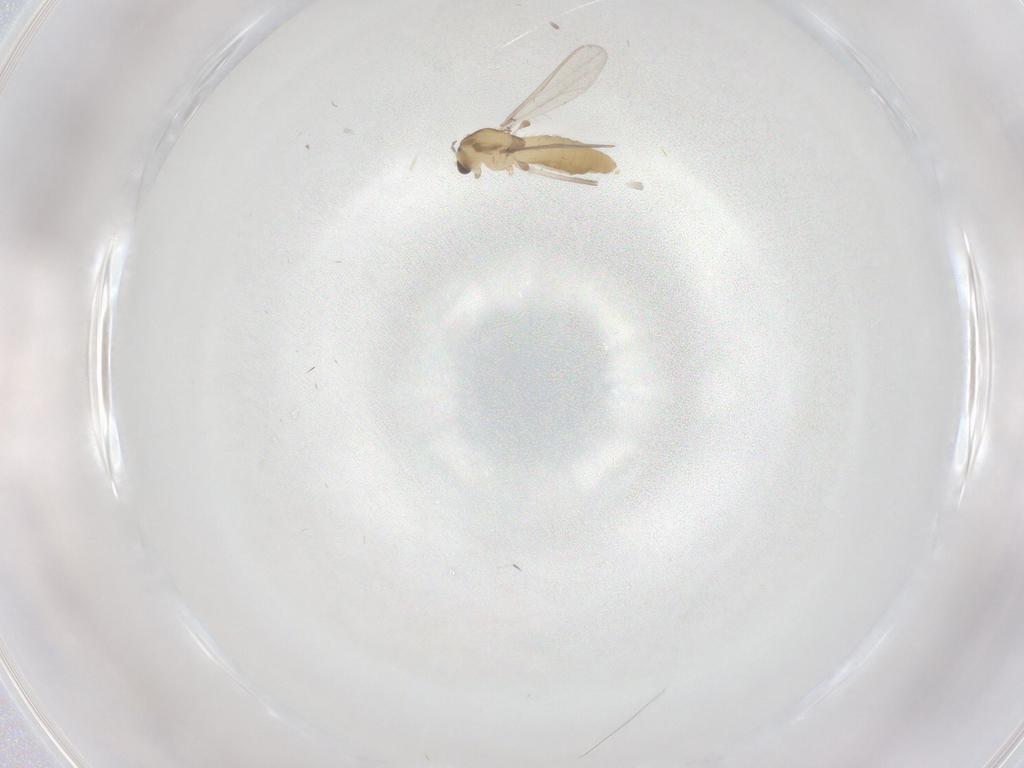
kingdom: Animalia
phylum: Arthropoda
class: Insecta
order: Diptera
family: Chironomidae
